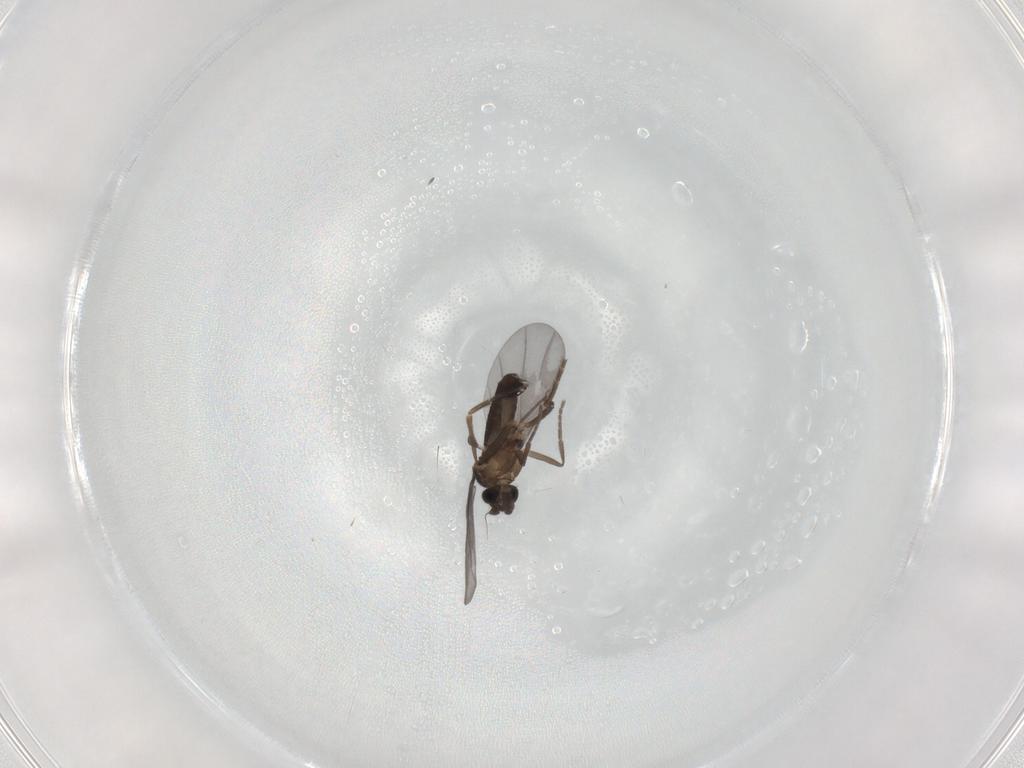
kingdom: Animalia
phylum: Arthropoda
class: Insecta
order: Diptera
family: Phoridae
